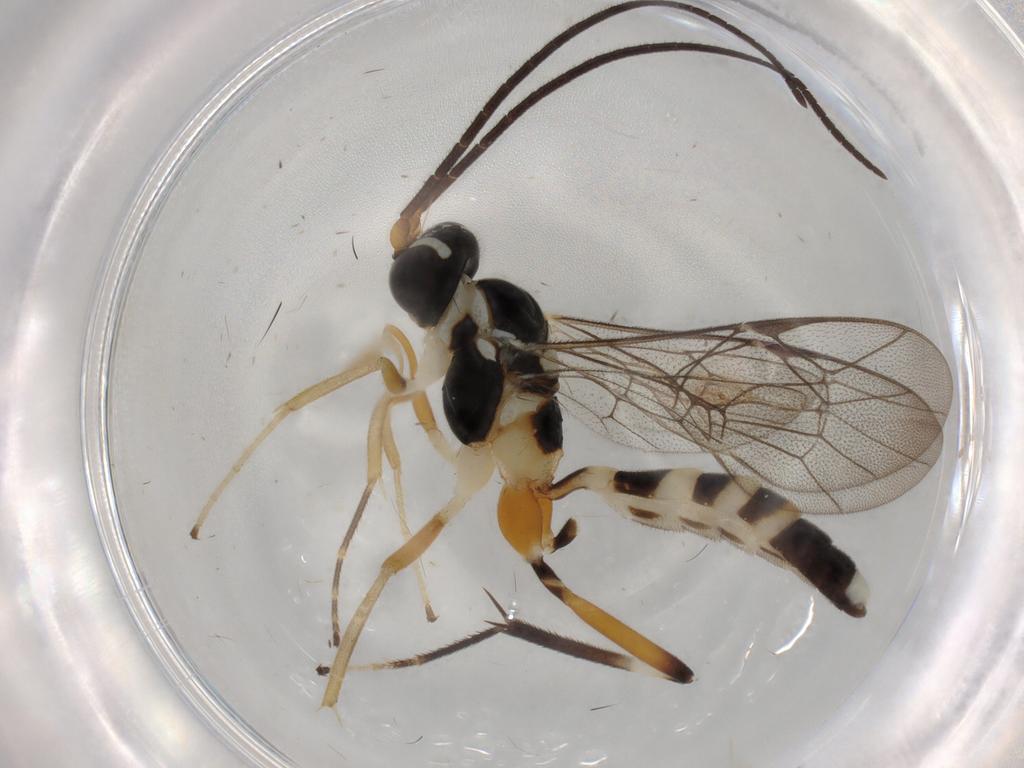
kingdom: Animalia
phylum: Arthropoda
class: Insecta
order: Hymenoptera
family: Ichneumonidae
